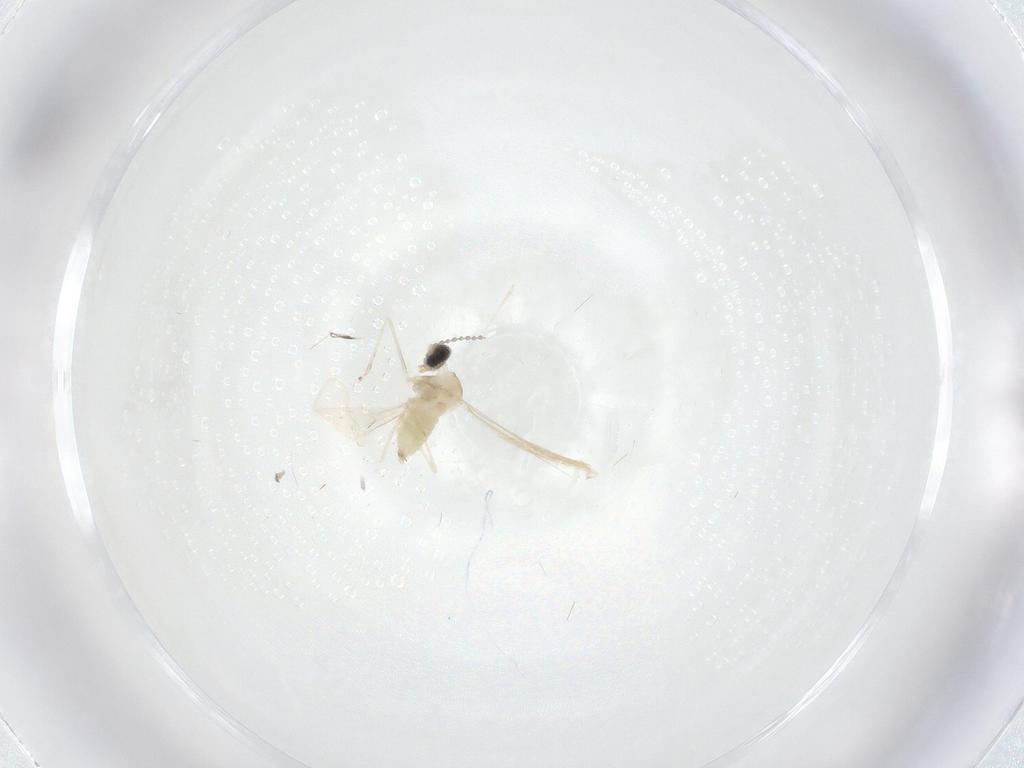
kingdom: Animalia
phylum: Arthropoda
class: Insecta
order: Diptera
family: Cecidomyiidae
